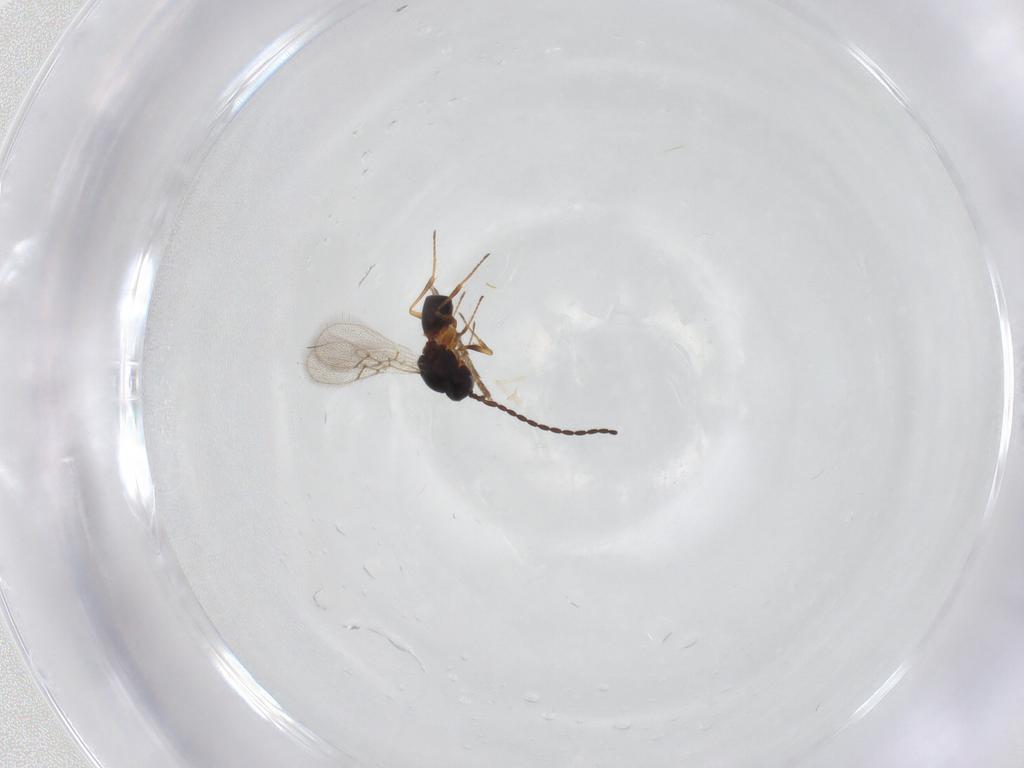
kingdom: Animalia
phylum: Arthropoda
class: Insecta
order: Hymenoptera
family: Figitidae
